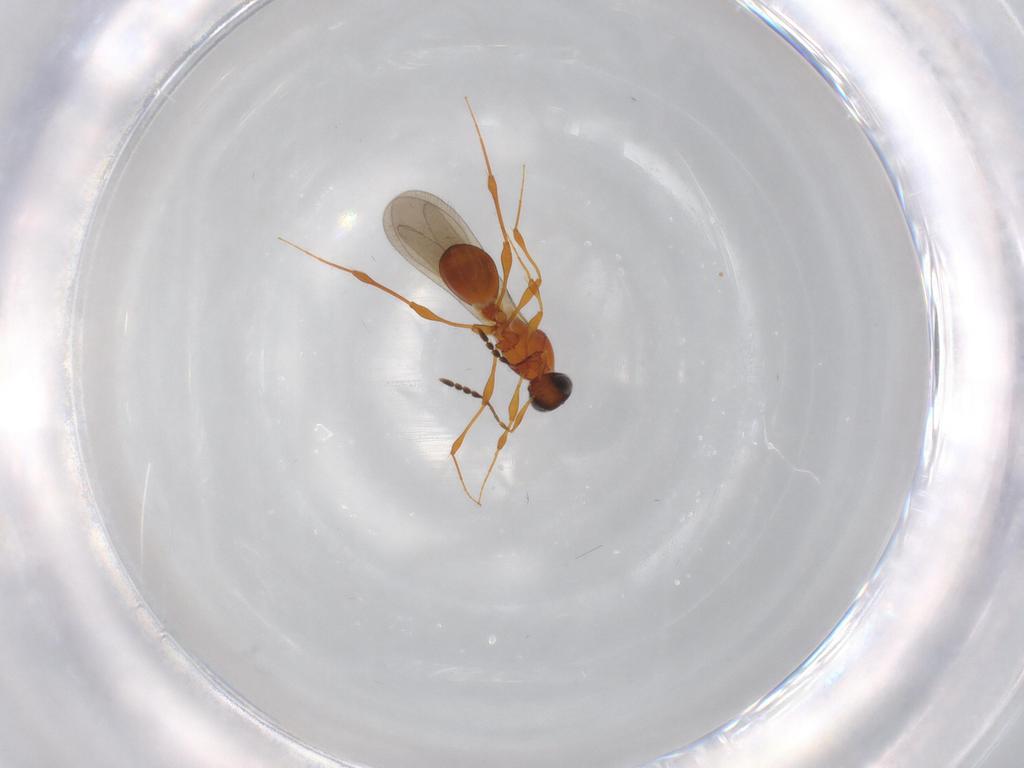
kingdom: Animalia
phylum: Arthropoda
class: Insecta
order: Hymenoptera
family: Platygastridae
